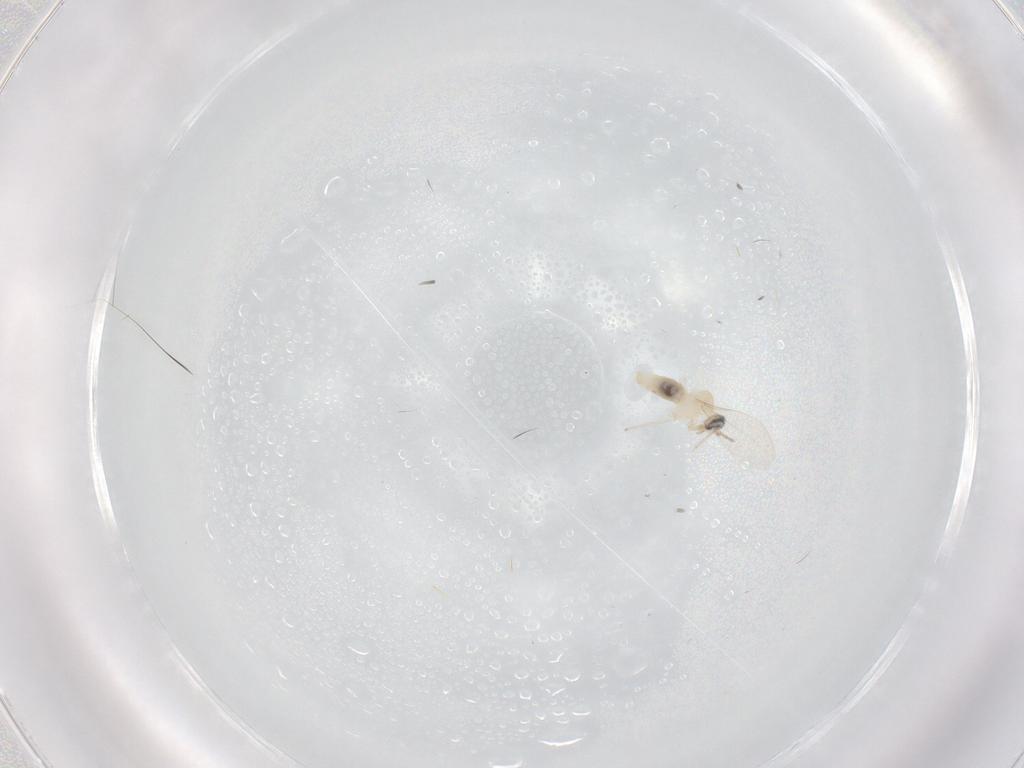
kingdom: Animalia
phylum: Arthropoda
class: Insecta
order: Diptera
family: Cecidomyiidae
